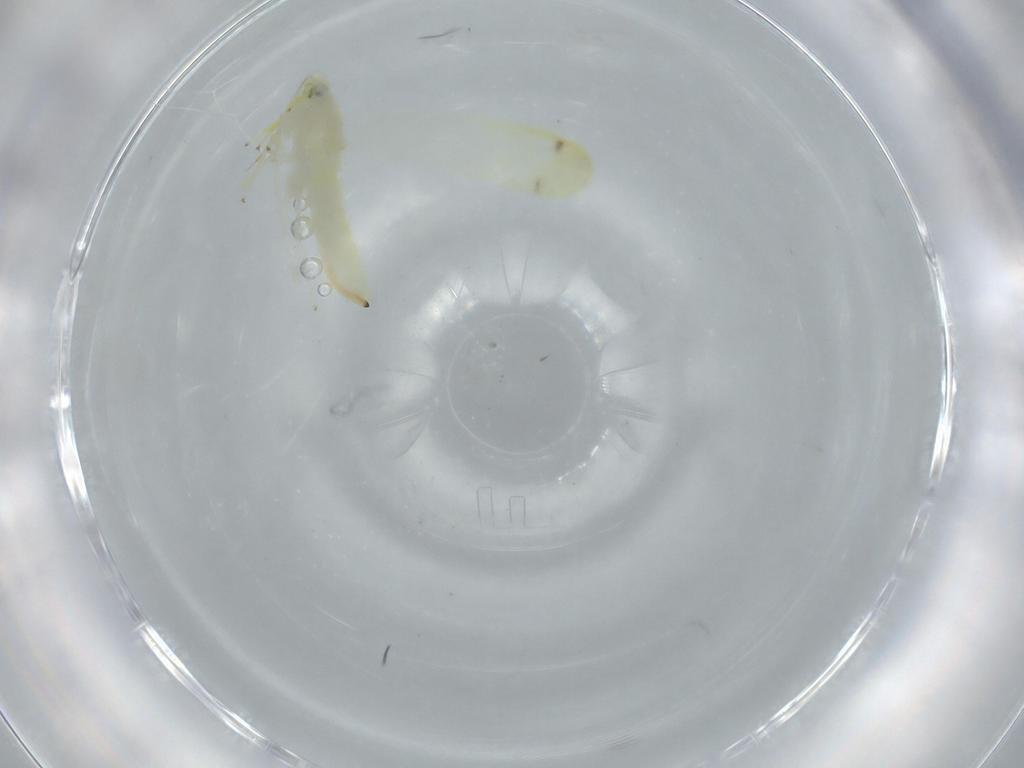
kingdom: Animalia
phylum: Arthropoda
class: Insecta
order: Hemiptera
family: Cicadellidae
